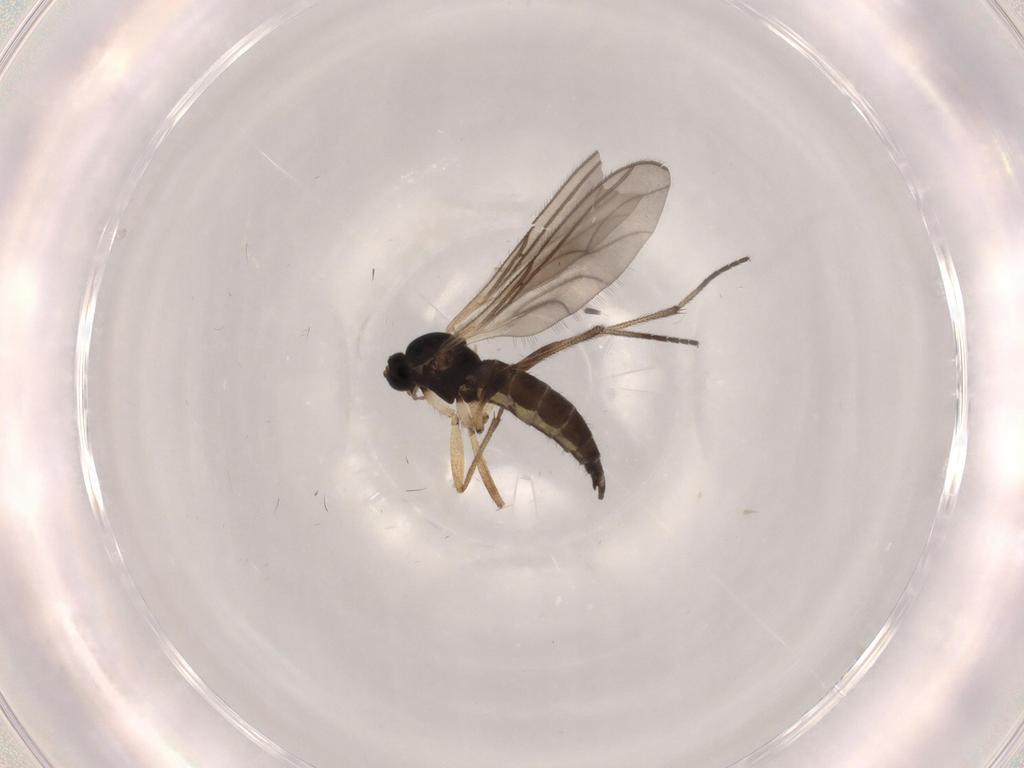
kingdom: Animalia
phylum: Arthropoda
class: Insecta
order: Diptera
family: Sciaridae
